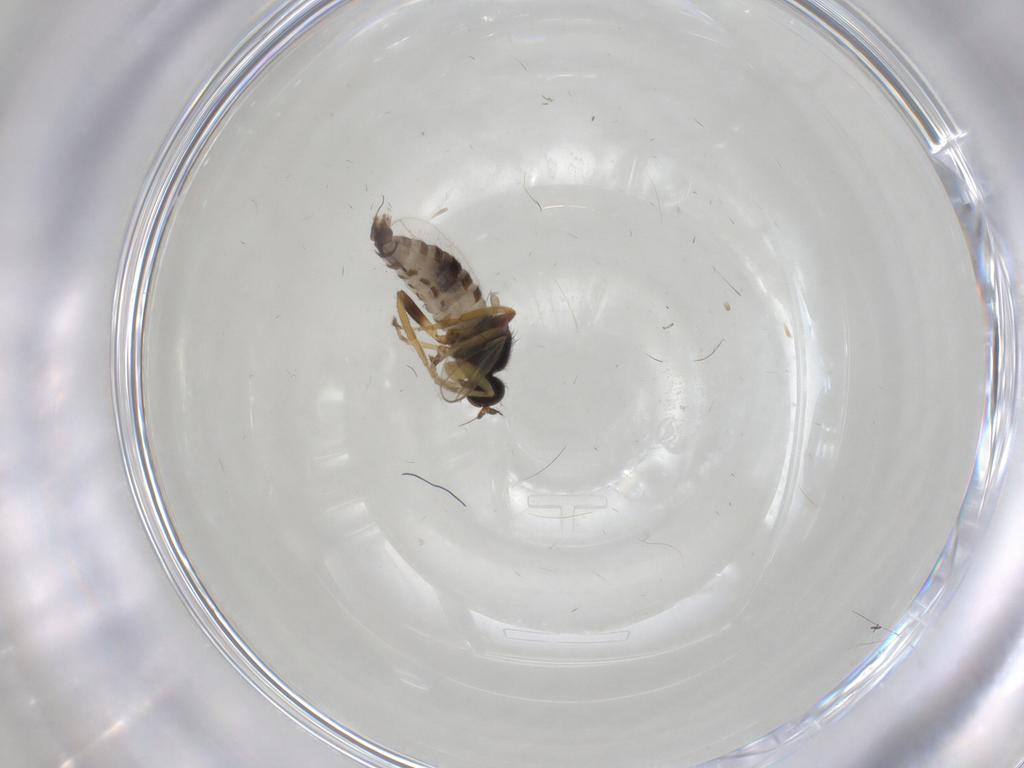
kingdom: Animalia
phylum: Arthropoda
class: Insecta
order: Diptera
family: Hybotidae
